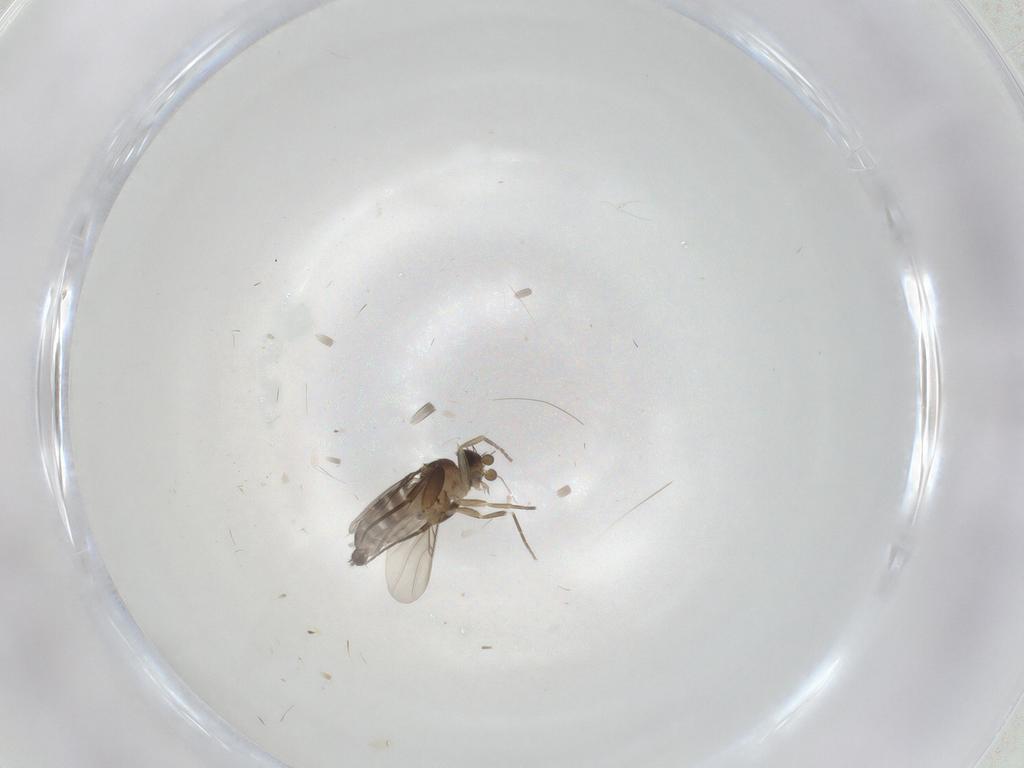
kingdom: Animalia
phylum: Arthropoda
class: Insecta
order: Diptera
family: Phoridae
